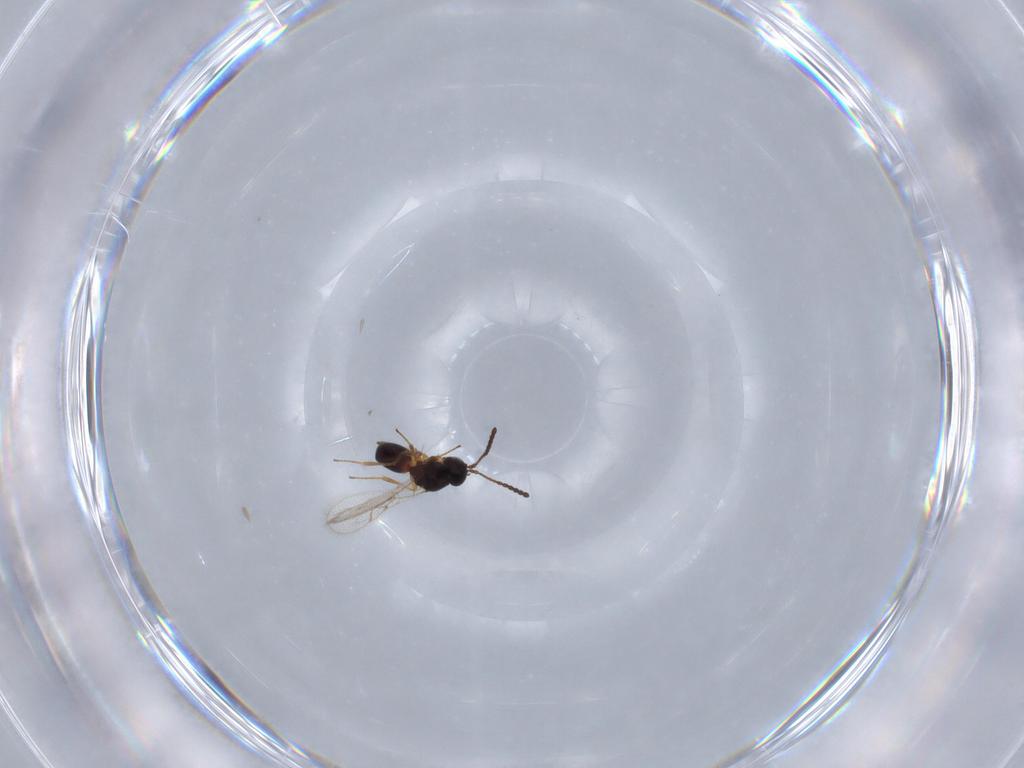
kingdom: Animalia
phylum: Arthropoda
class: Insecta
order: Hymenoptera
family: Figitidae
